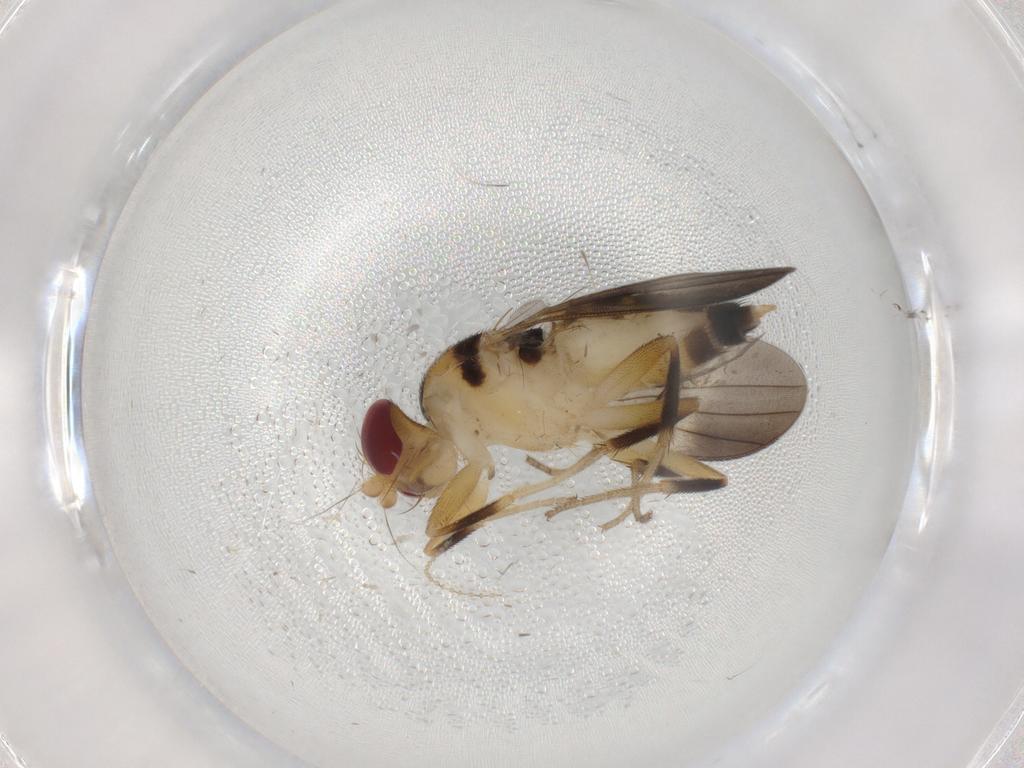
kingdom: Animalia
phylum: Arthropoda
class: Insecta
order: Diptera
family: Clusiidae
